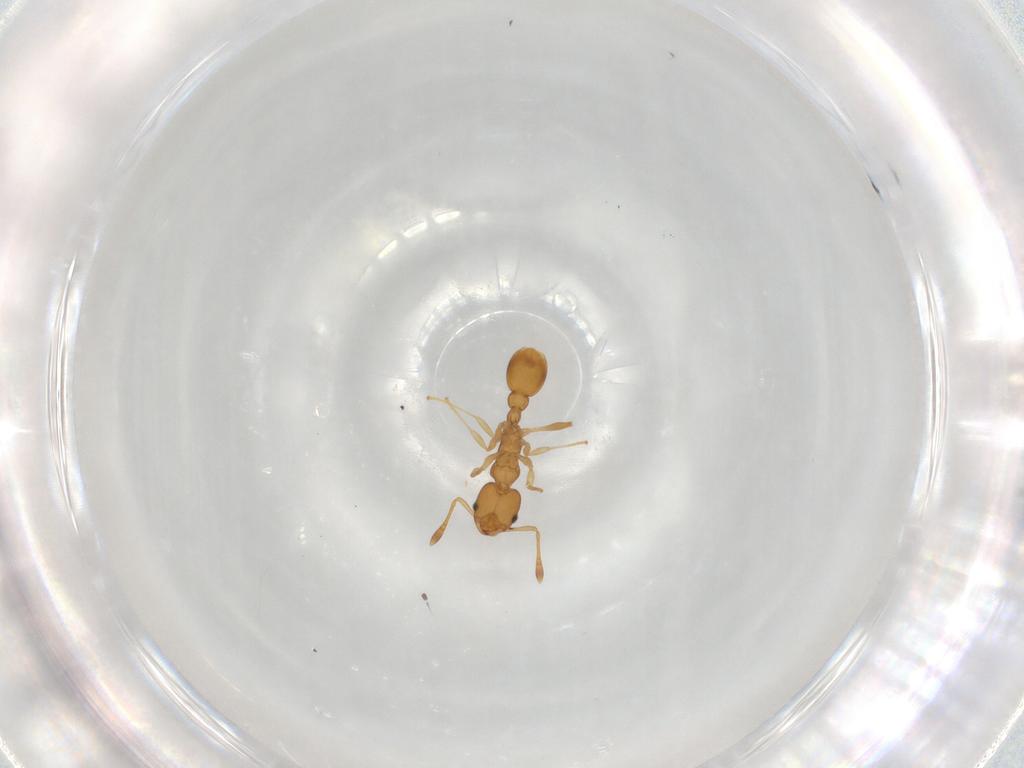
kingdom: Animalia
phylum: Arthropoda
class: Insecta
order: Hymenoptera
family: Formicidae
